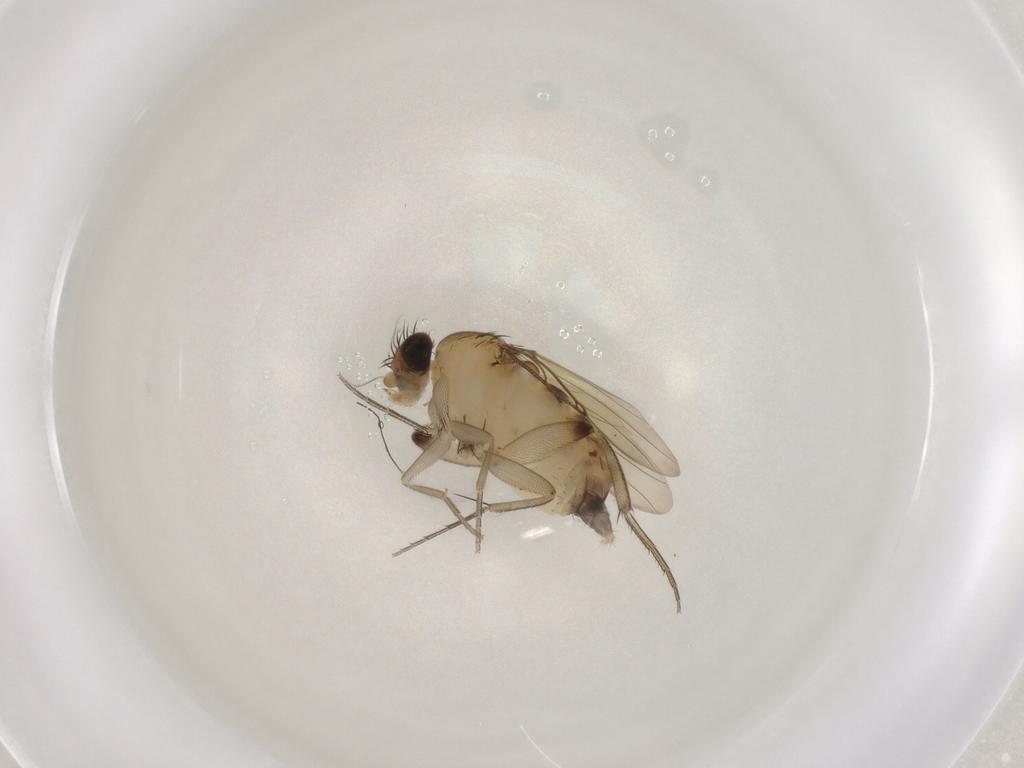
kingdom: Animalia
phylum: Arthropoda
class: Insecta
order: Diptera
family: Phoridae
